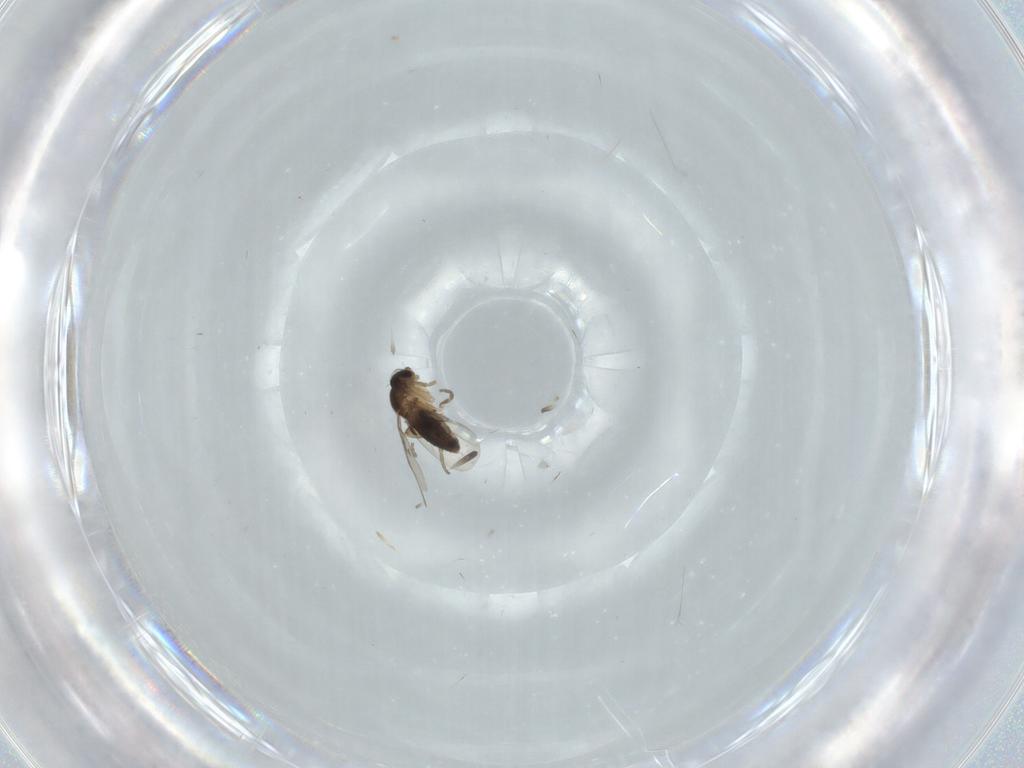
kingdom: Animalia
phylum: Arthropoda
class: Insecta
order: Diptera
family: Cecidomyiidae
